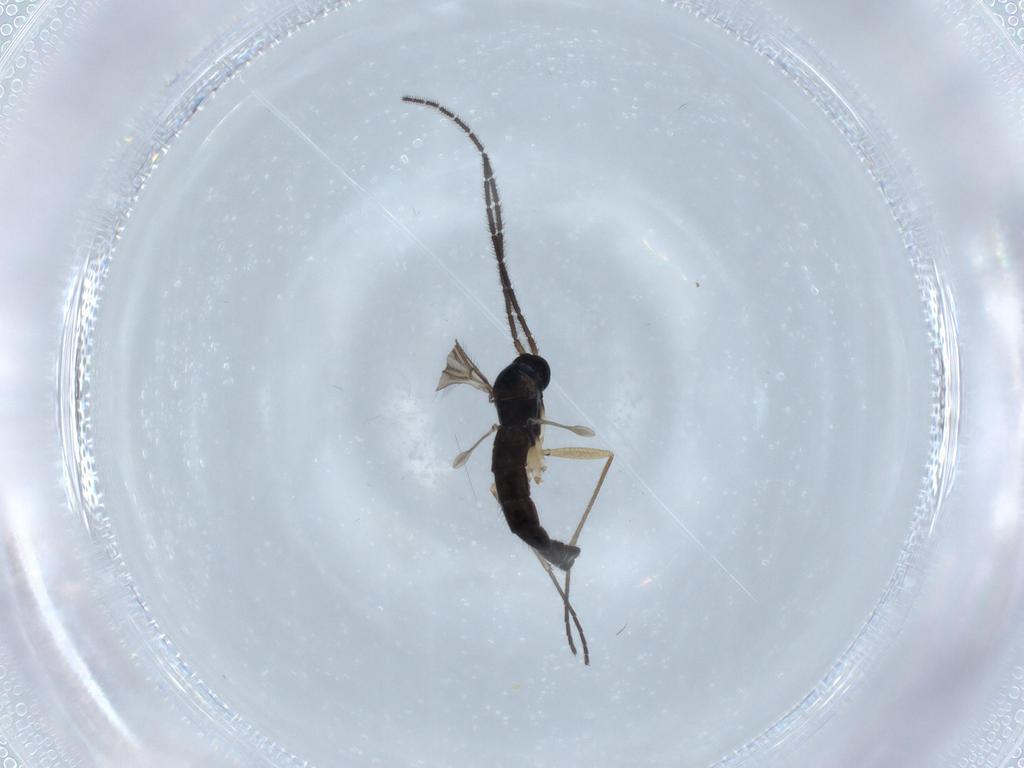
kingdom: Animalia
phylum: Arthropoda
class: Insecta
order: Diptera
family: Sciaridae
